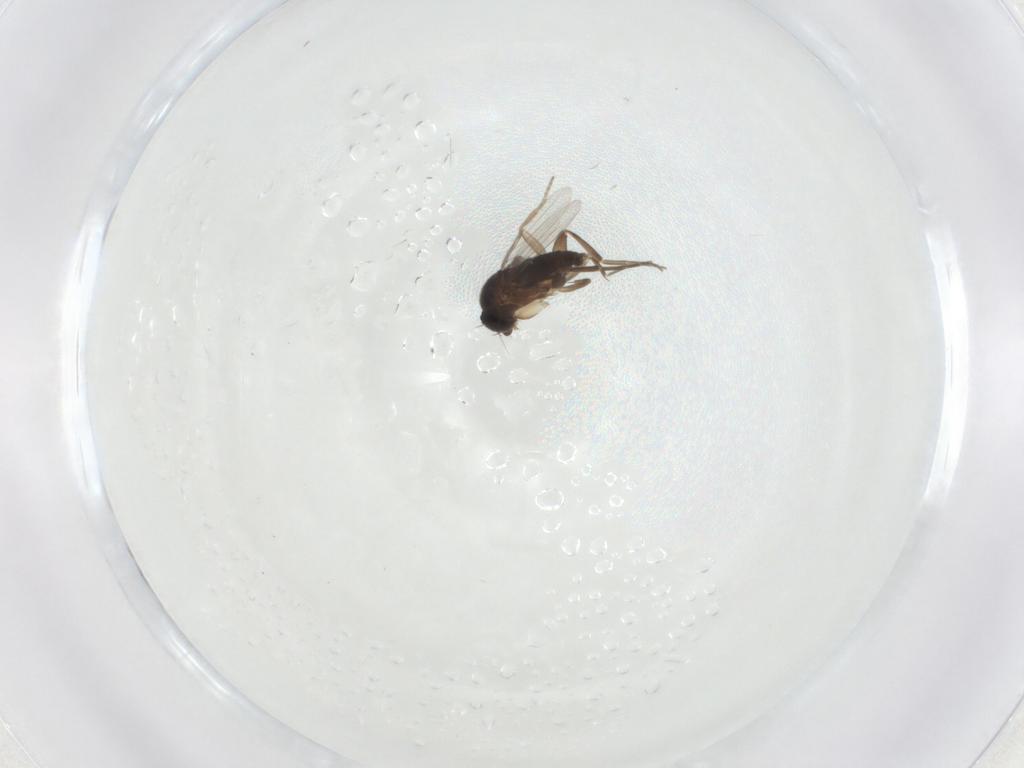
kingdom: Animalia
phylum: Arthropoda
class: Insecta
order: Diptera
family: Phoridae
